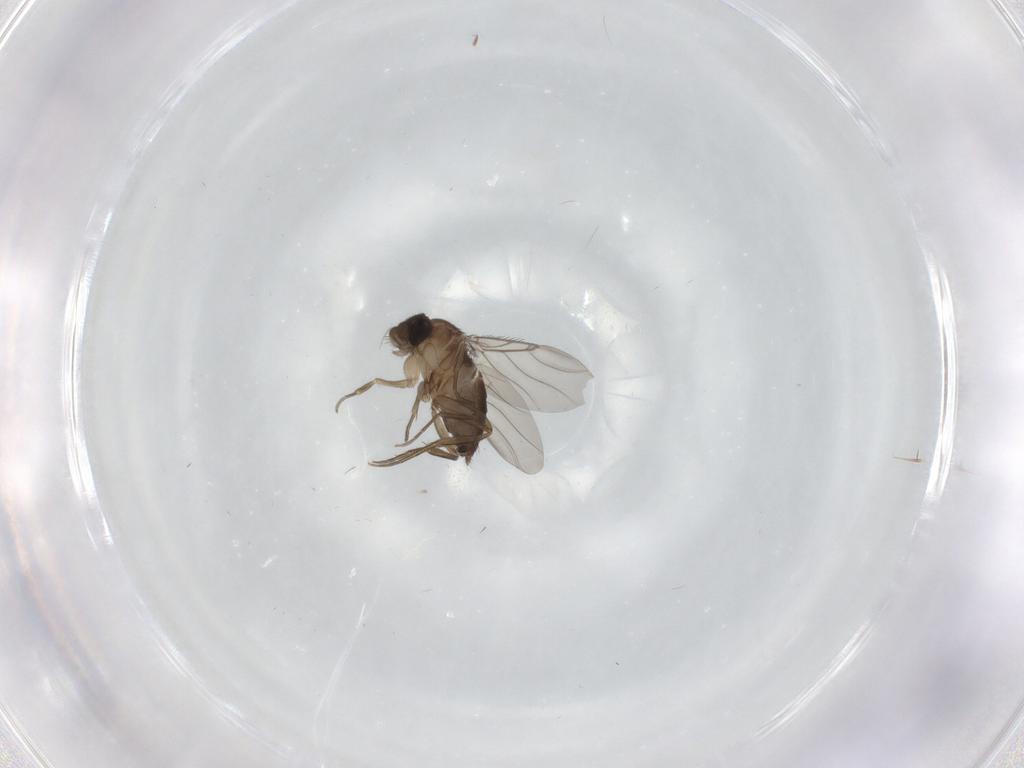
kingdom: Animalia
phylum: Arthropoda
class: Insecta
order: Diptera
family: Phoridae
